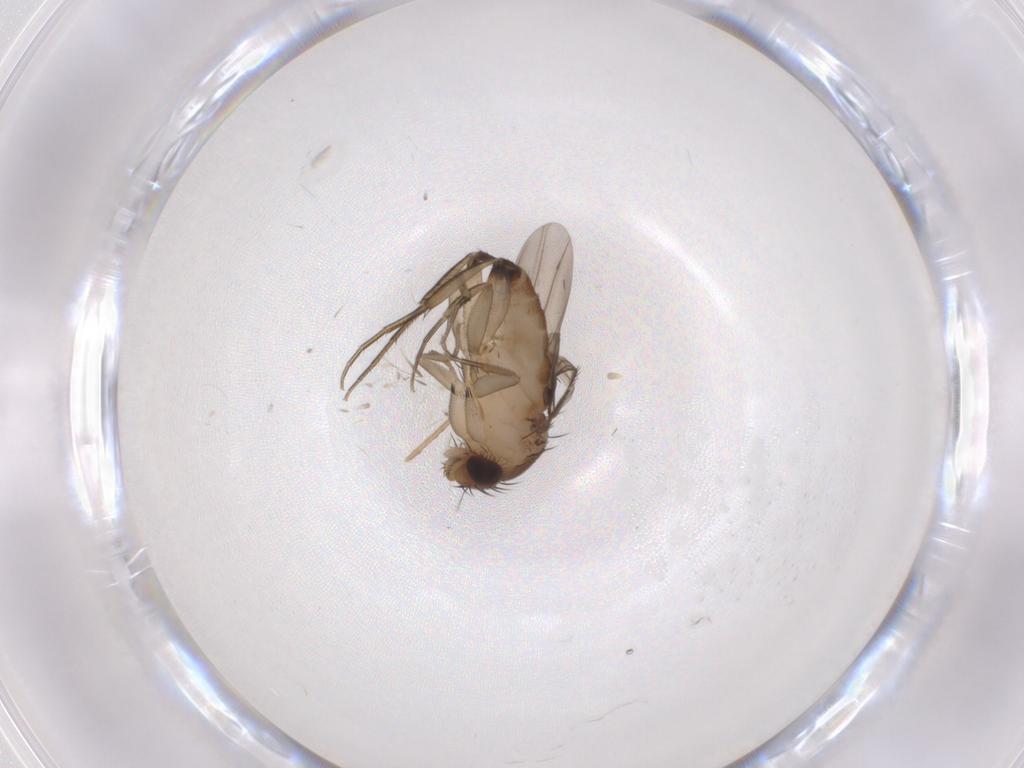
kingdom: Animalia
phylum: Arthropoda
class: Insecta
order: Diptera
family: Phoridae
